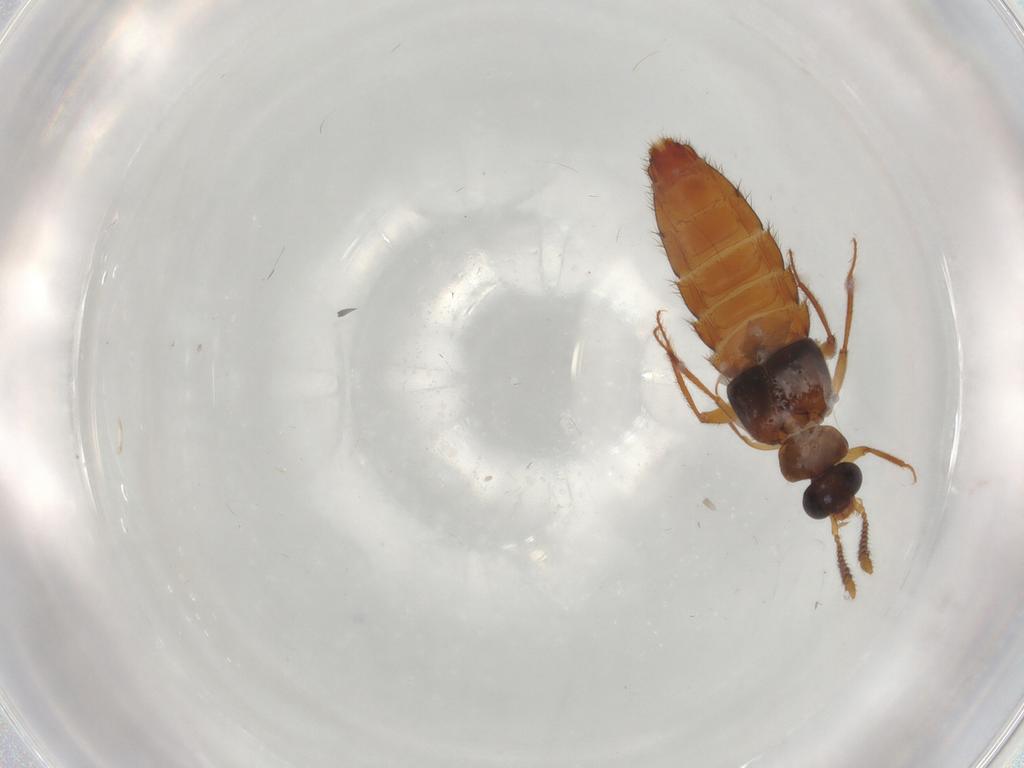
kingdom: Animalia
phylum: Arthropoda
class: Insecta
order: Coleoptera
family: Staphylinidae
